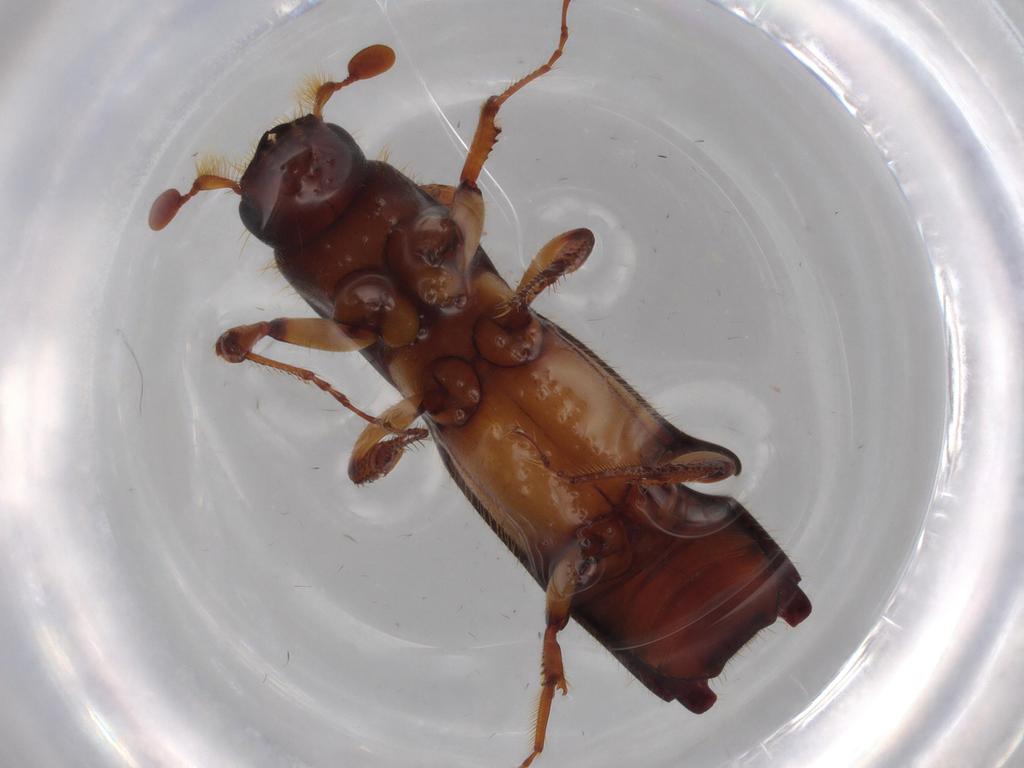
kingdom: Animalia
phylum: Arthropoda
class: Insecta
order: Coleoptera
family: Curculionidae
